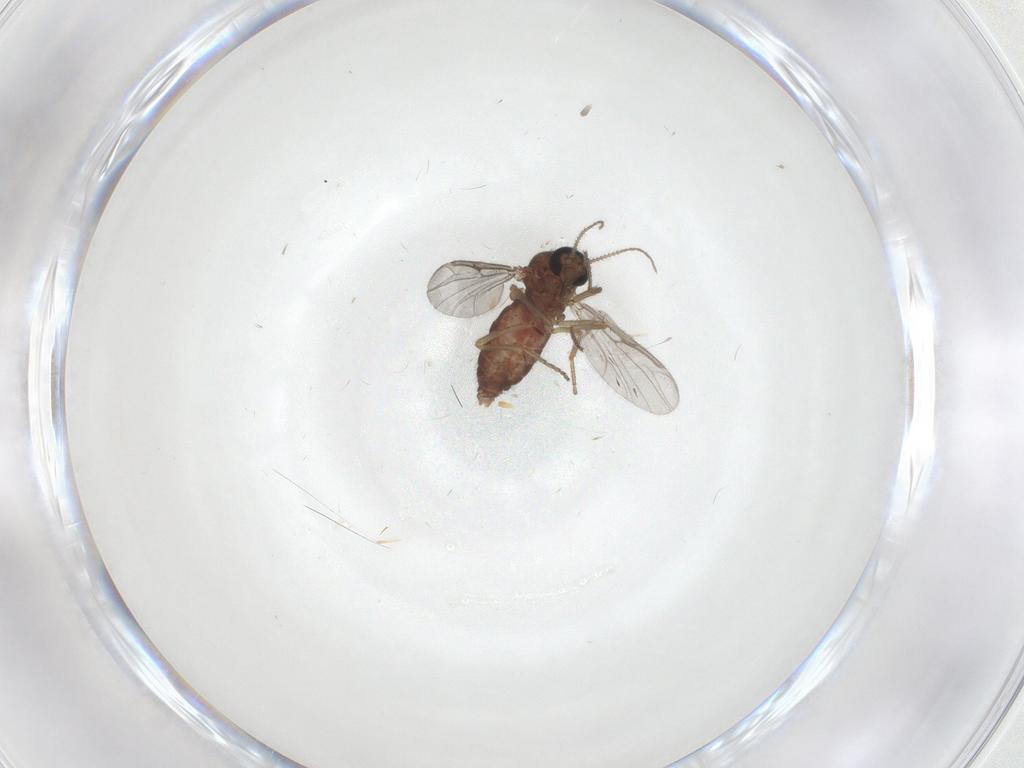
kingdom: Animalia
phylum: Arthropoda
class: Insecta
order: Diptera
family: Ceratopogonidae
